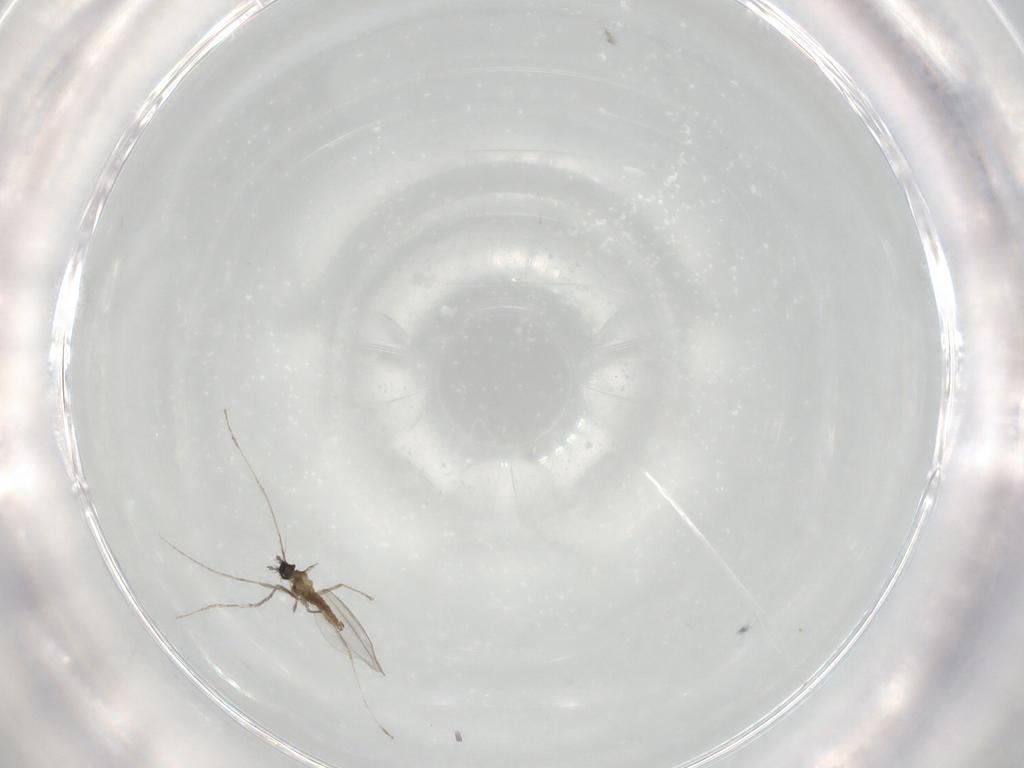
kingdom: Animalia
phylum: Arthropoda
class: Insecta
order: Diptera
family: Cecidomyiidae
